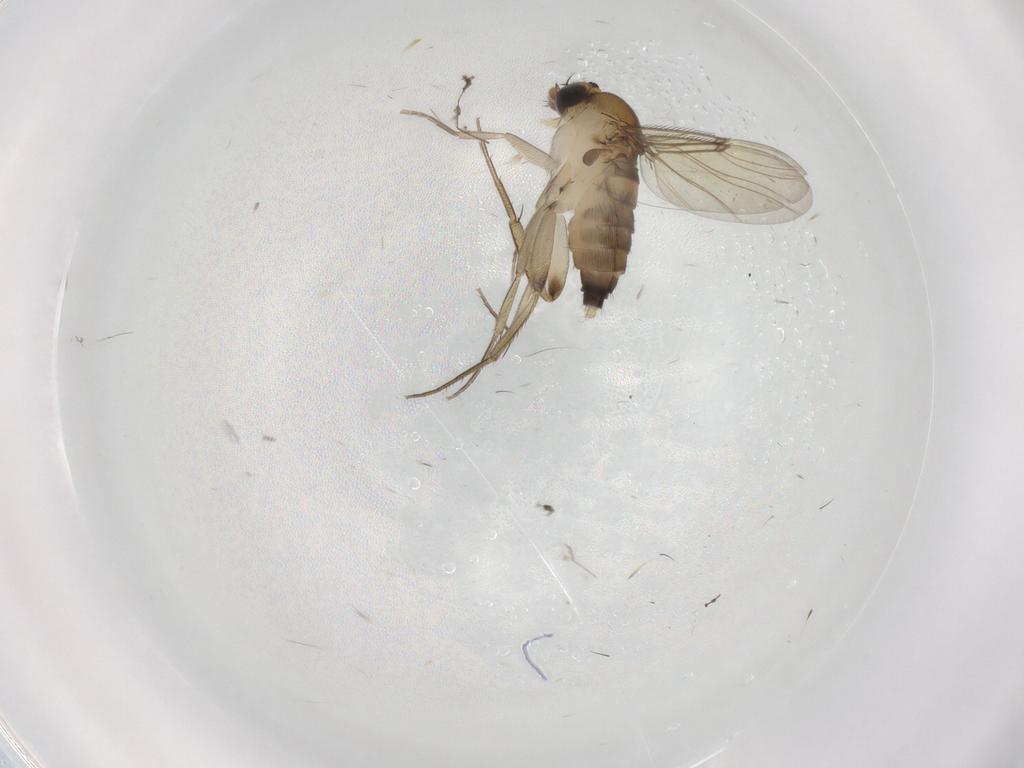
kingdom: Animalia
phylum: Arthropoda
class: Insecta
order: Diptera
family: Phoridae
